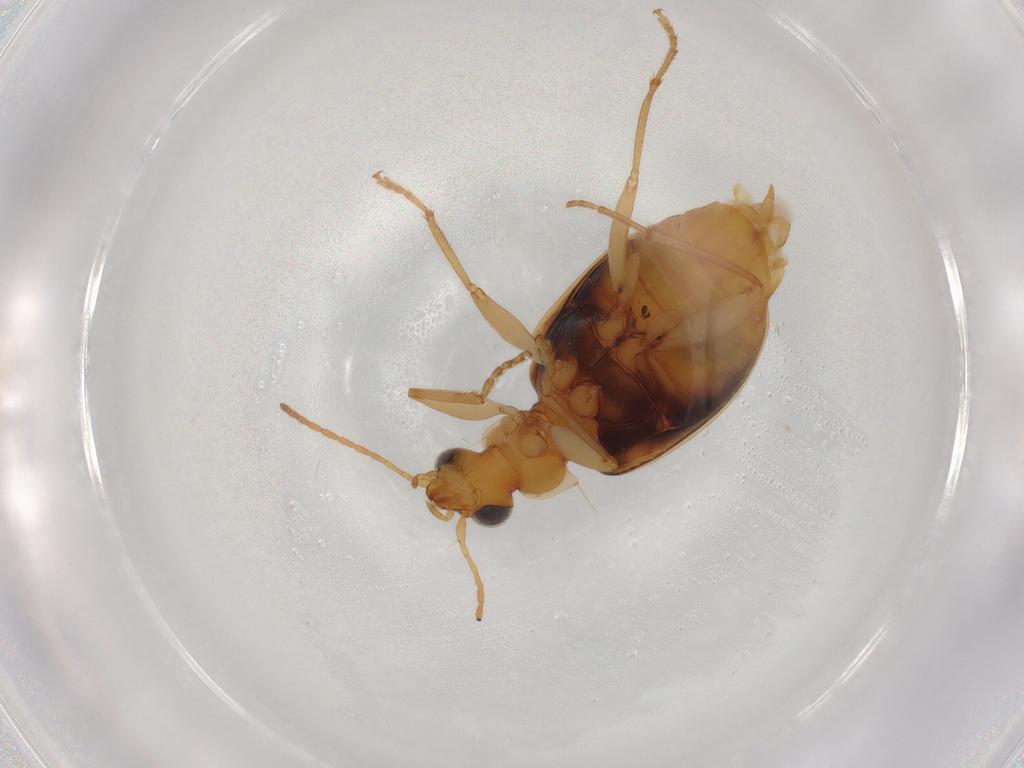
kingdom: Animalia
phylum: Arthropoda
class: Insecta
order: Coleoptera
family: Carabidae
